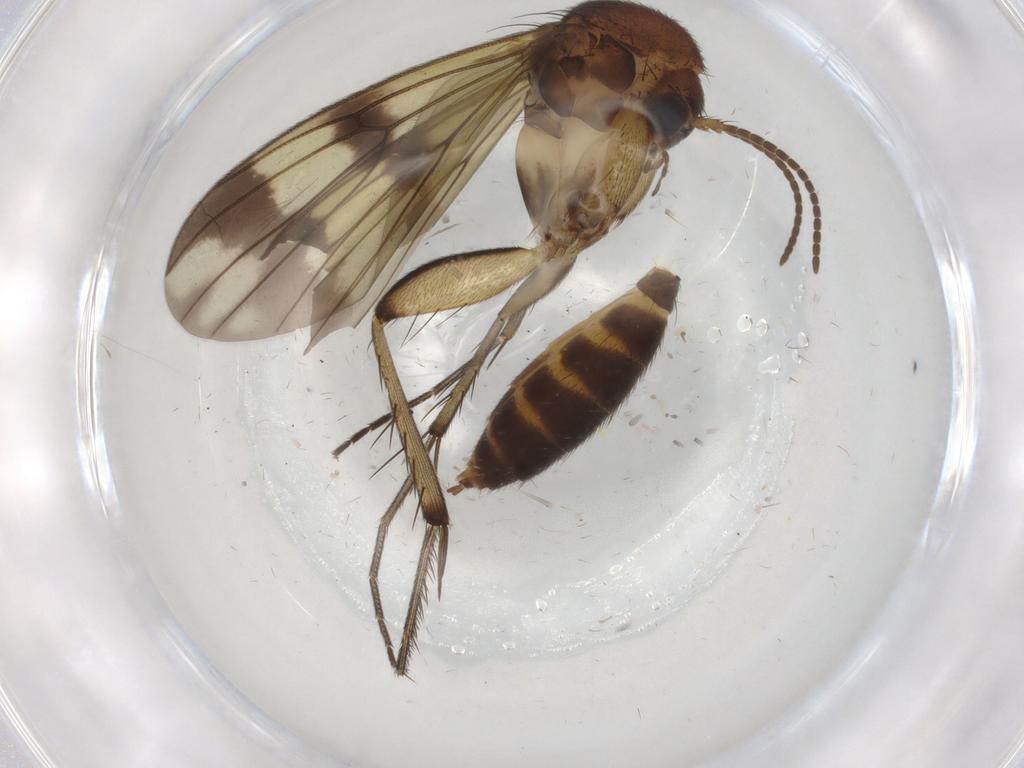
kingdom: Animalia
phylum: Arthropoda
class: Insecta
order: Diptera
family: Mycetophilidae
